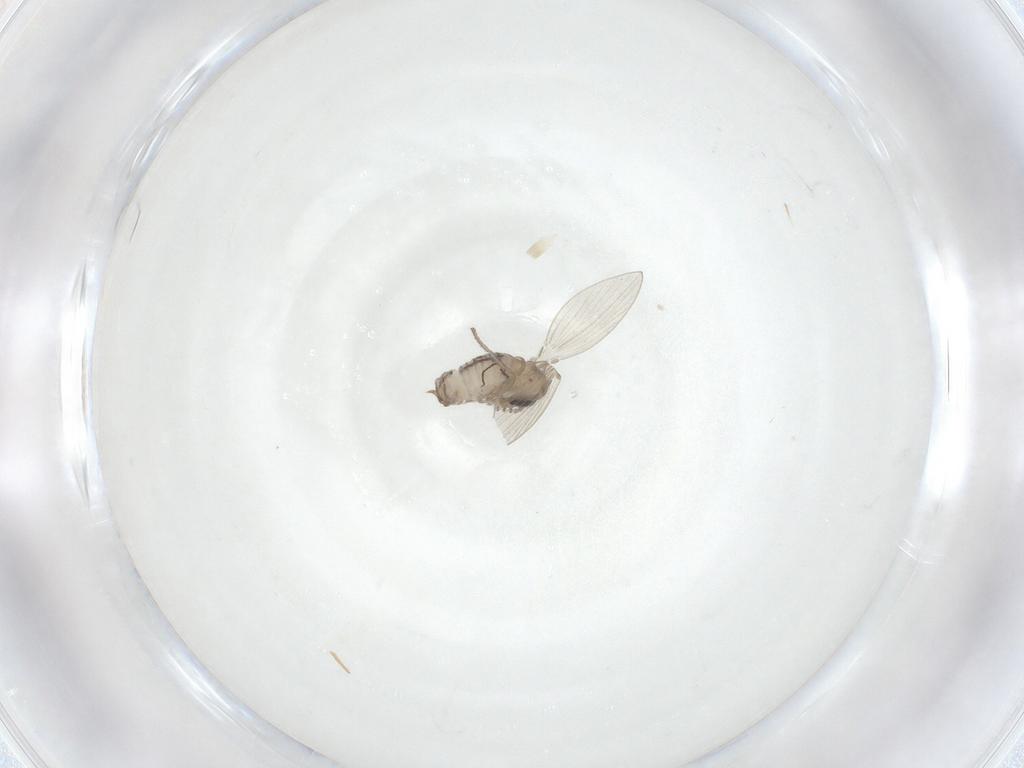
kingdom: Animalia
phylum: Arthropoda
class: Insecta
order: Diptera
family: Psychodidae
